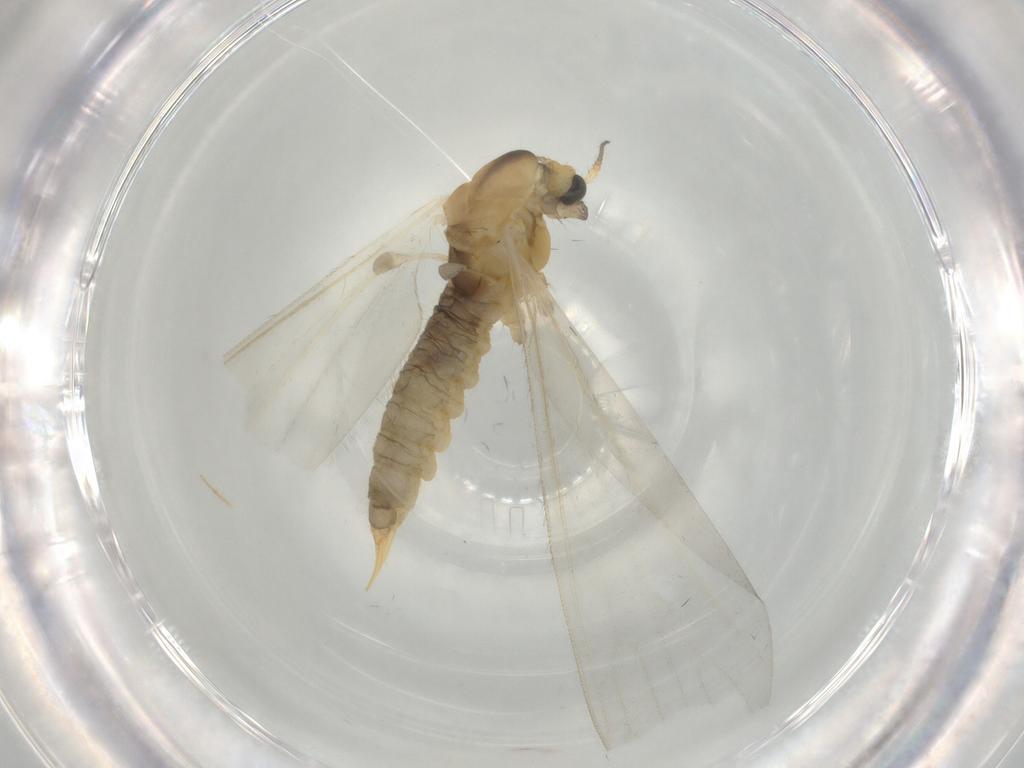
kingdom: Animalia
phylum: Arthropoda
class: Insecta
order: Diptera
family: Limoniidae
